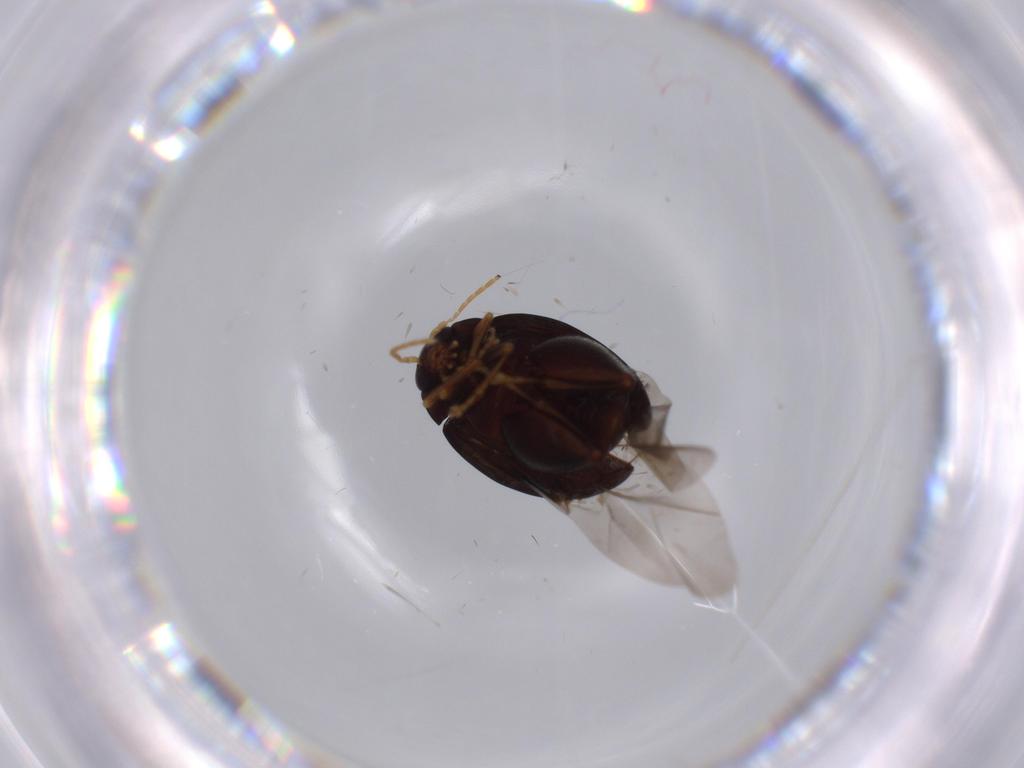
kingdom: Animalia
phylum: Arthropoda
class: Insecta
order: Coleoptera
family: Chrysomelidae
